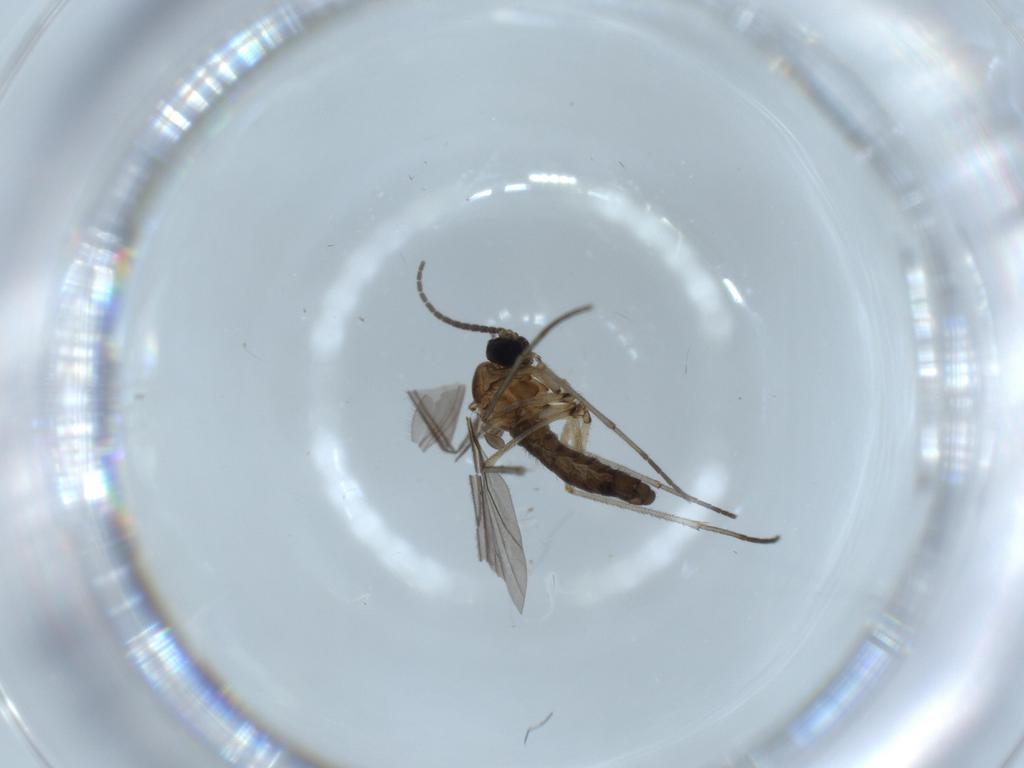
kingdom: Animalia
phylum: Arthropoda
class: Insecta
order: Diptera
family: Sciaridae
